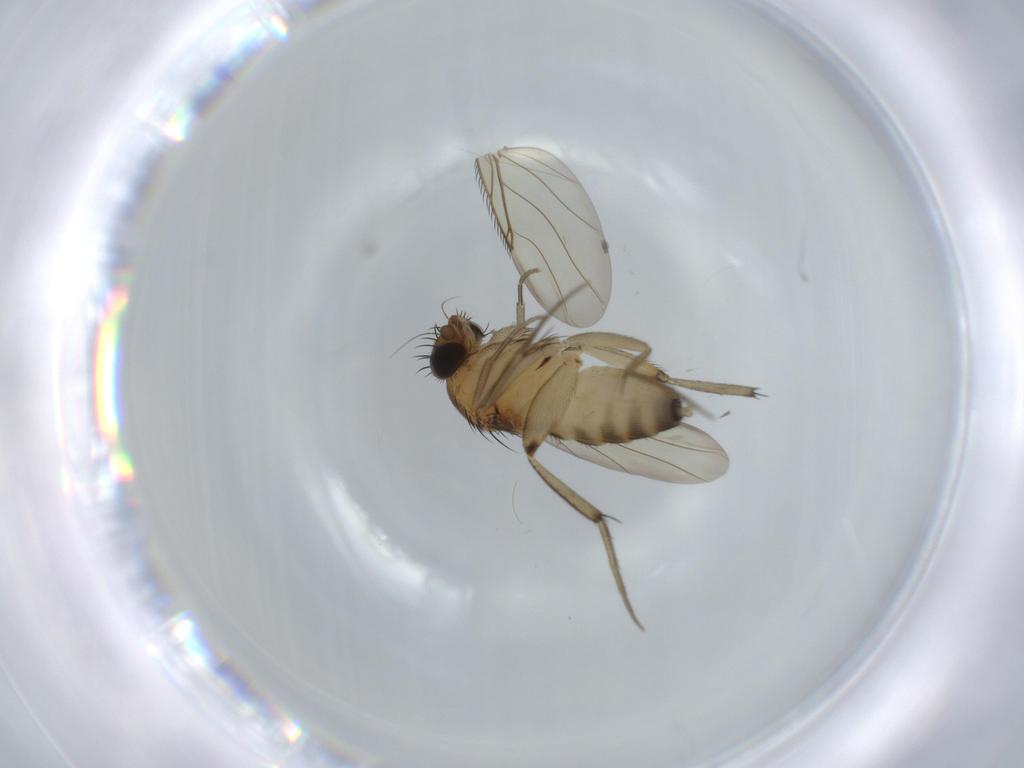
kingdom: Animalia
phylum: Arthropoda
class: Insecta
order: Diptera
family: Phoridae
